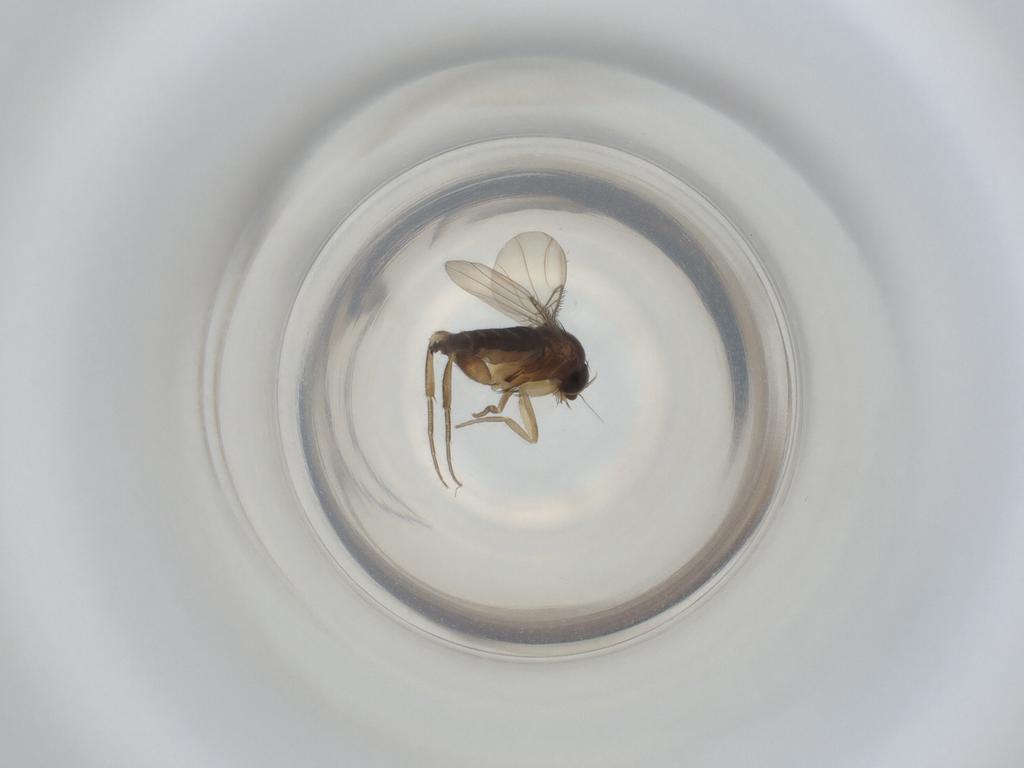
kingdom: Animalia
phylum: Arthropoda
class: Insecta
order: Diptera
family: Phoridae
